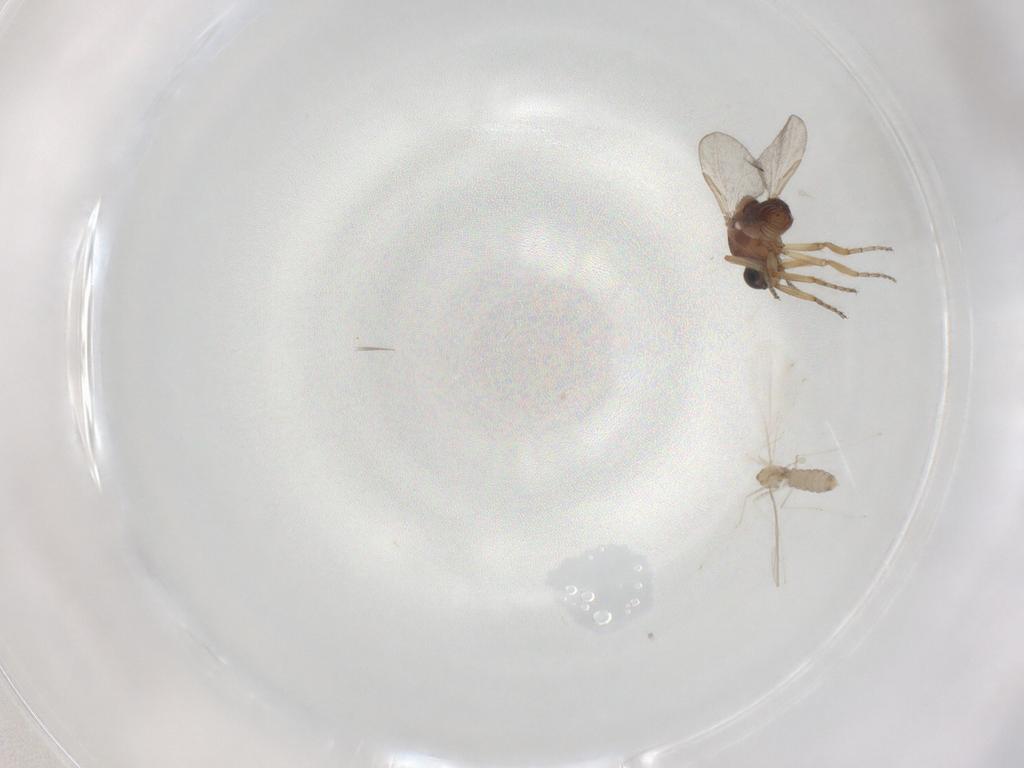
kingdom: Animalia
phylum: Arthropoda
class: Insecta
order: Diptera
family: Ceratopogonidae
